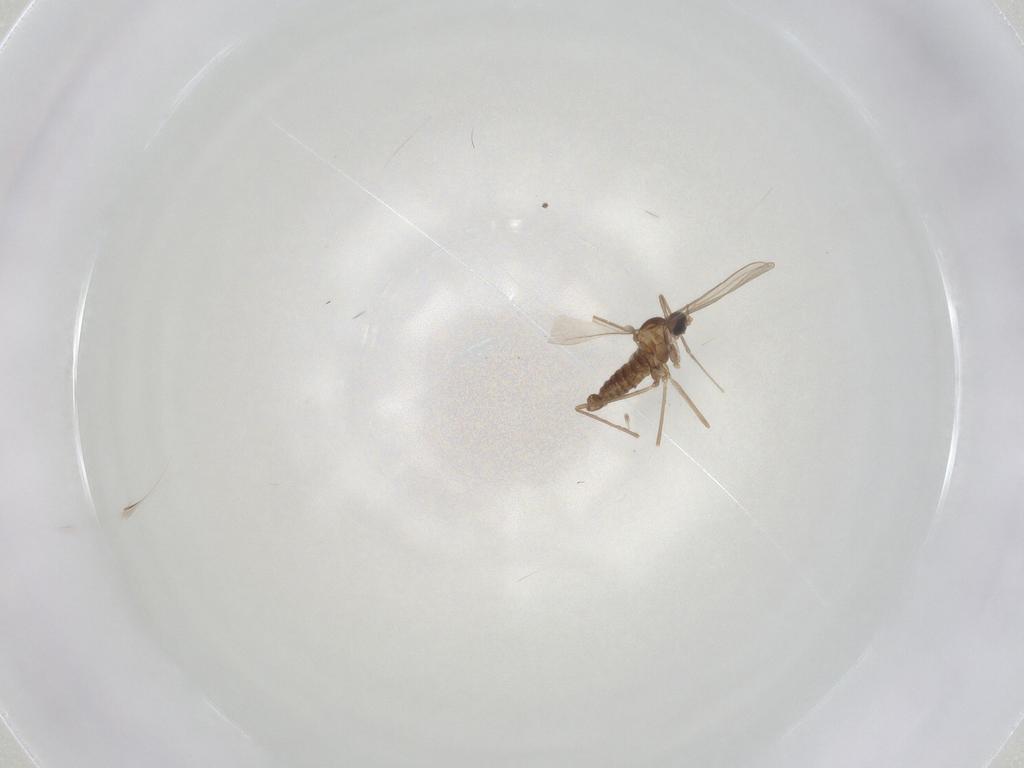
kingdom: Animalia
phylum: Arthropoda
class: Insecta
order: Diptera
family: Cecidomyiidae
